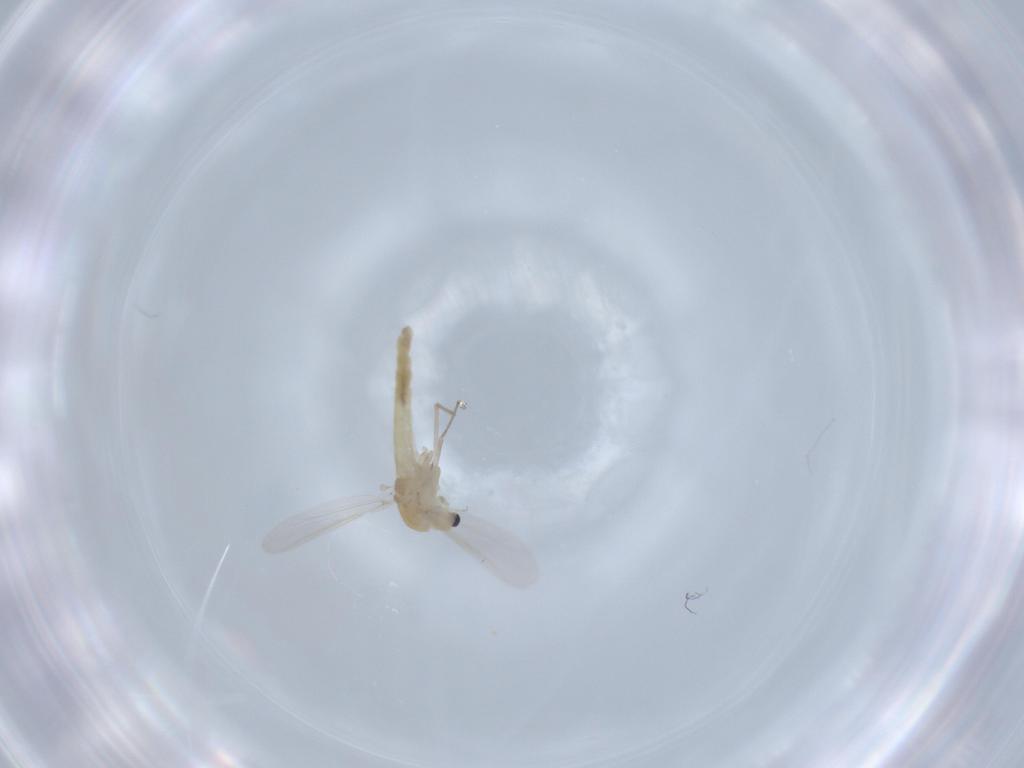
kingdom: Animalia
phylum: Arthropoda
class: Insecta
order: Diptera
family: Chironomidae
